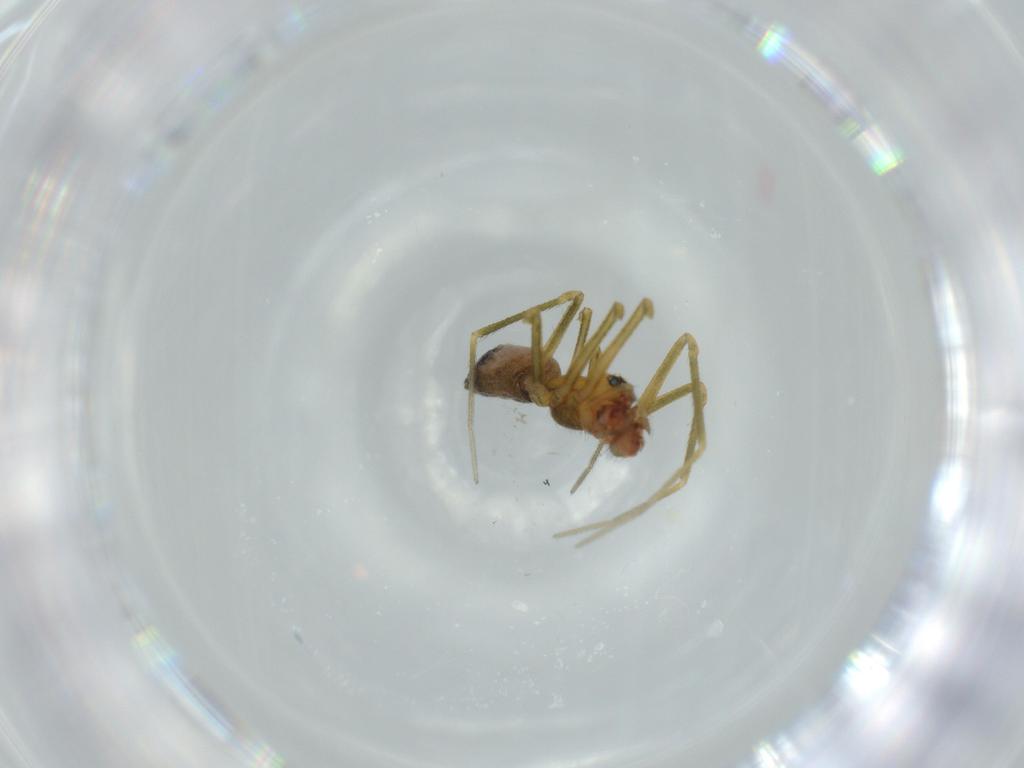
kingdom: Animalia
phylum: Arthropoda
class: Arachnida
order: Araneae
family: Linyphiidae
